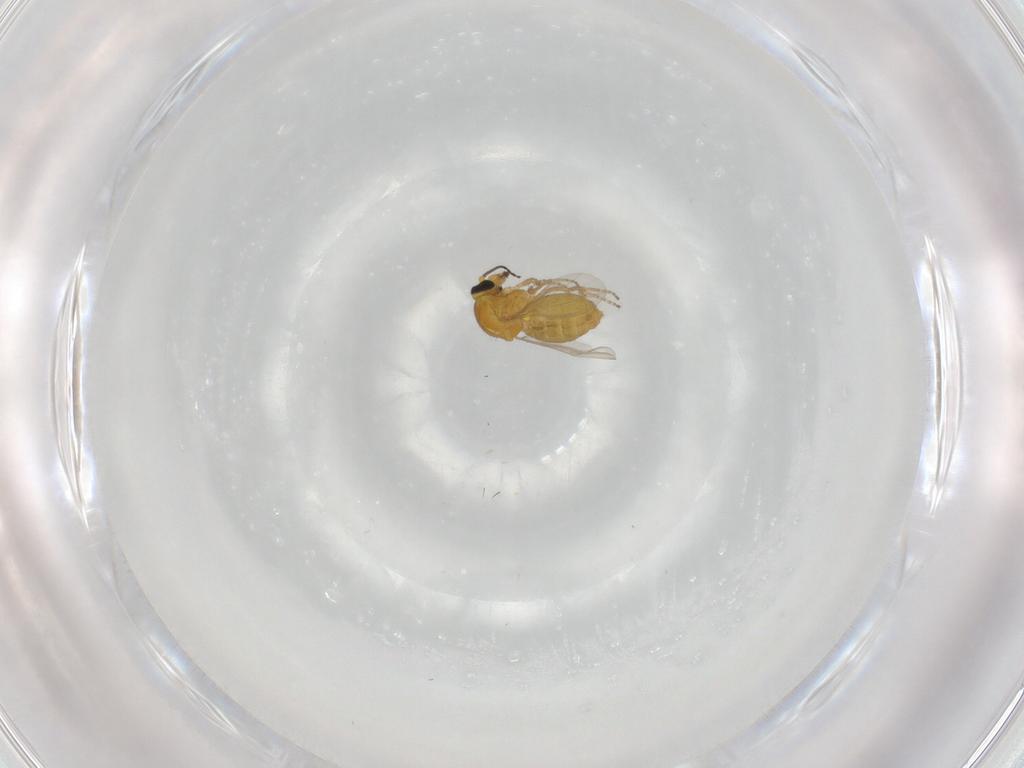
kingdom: Animalia
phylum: Arthropoda
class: Insecta
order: Diptera
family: Ceratopogonidae
